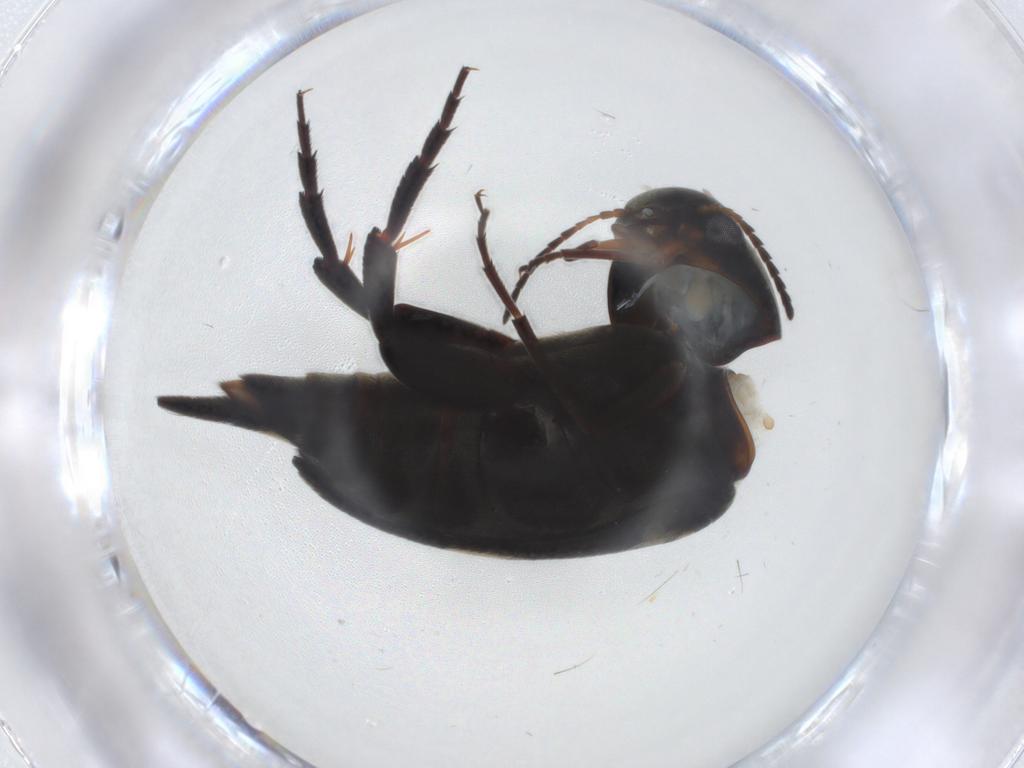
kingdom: Animalia
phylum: Arthropoda
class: Insecta
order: Coleoptera
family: Mordellidae
